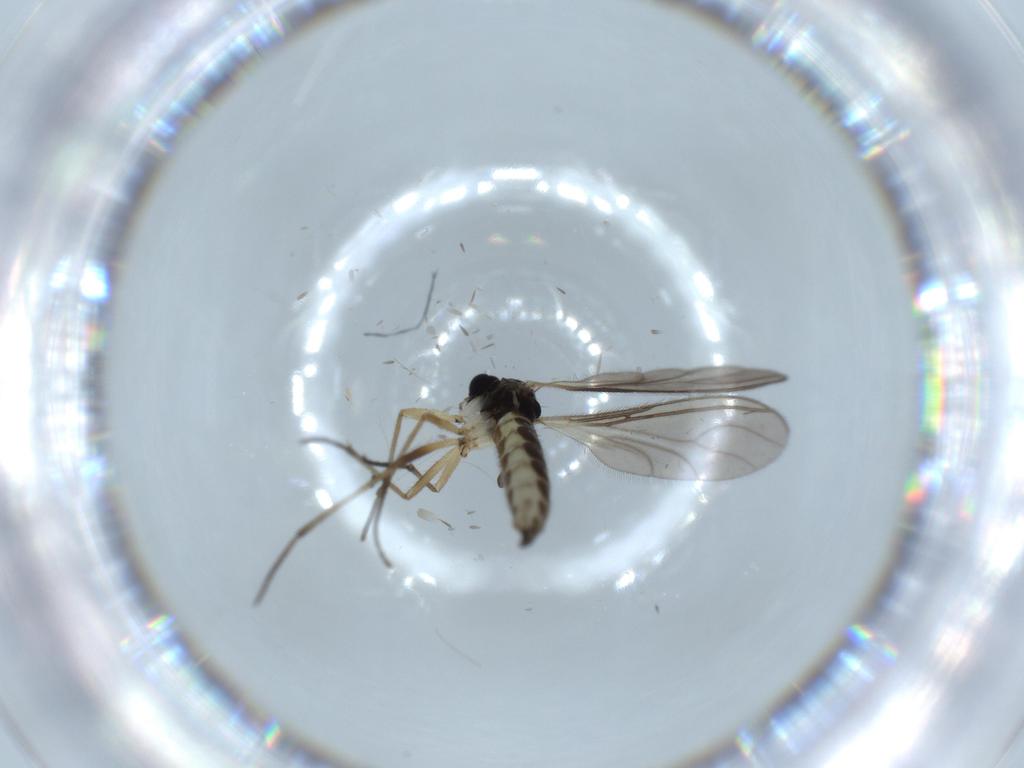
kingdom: Animalia
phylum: Arthropoda
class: Insecta
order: Diptera
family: Sciaridae
